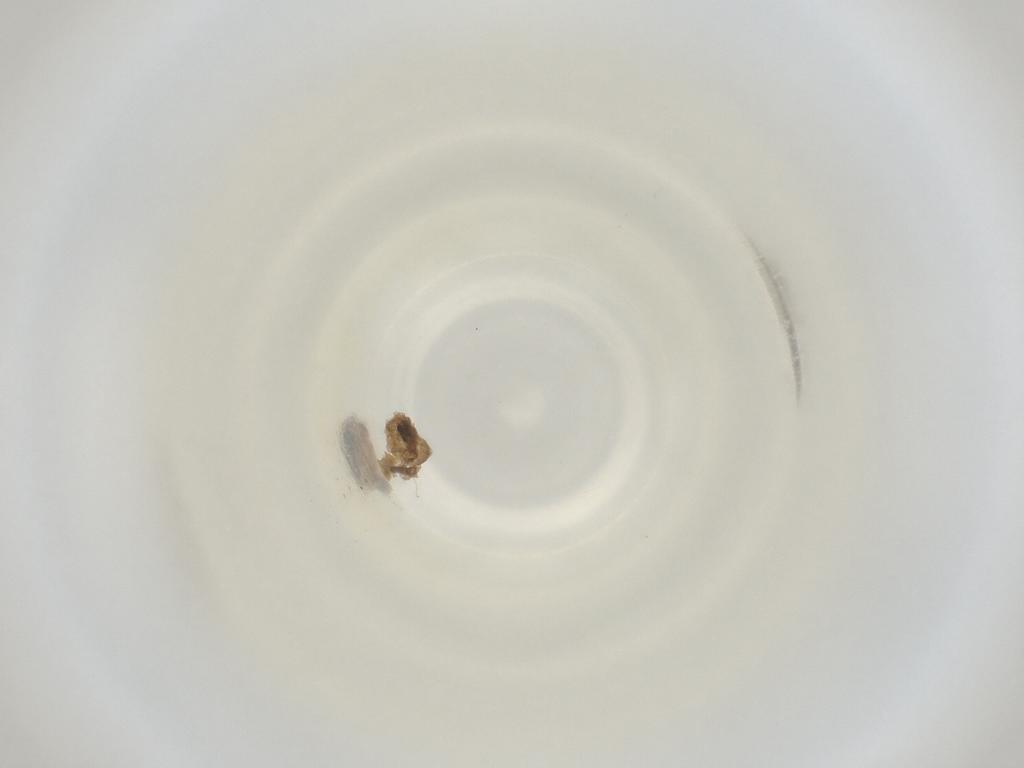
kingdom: Animalia
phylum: Arthropoda
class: Insecta
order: Diptera
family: Cecidomyiidae
